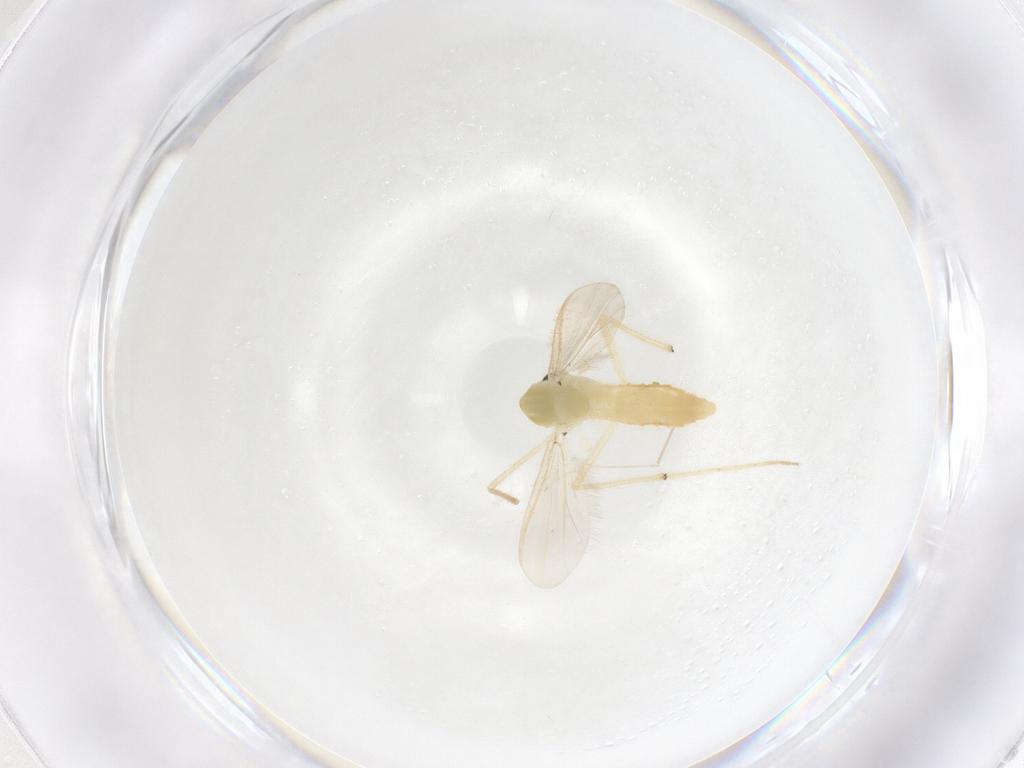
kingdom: Animalia
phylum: Arthropoda
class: Insecta
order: Diptera
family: Chironomidae
